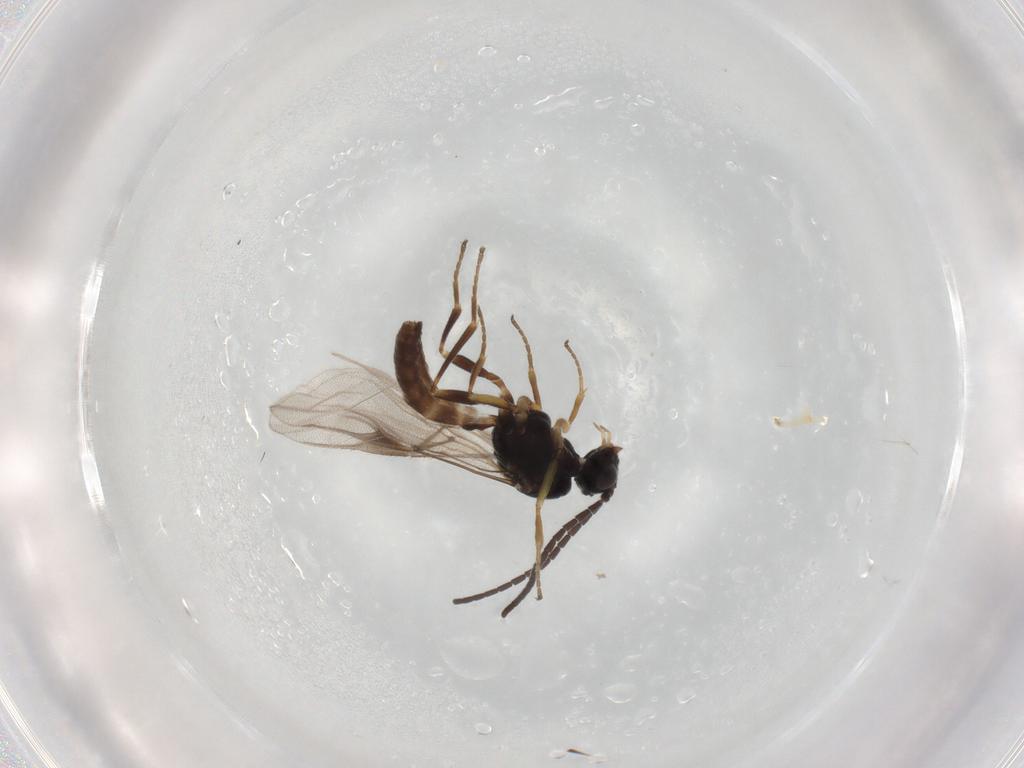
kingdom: Animalia
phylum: Arthropoda
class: Insecta
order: Hymenoptera
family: Braconidae
